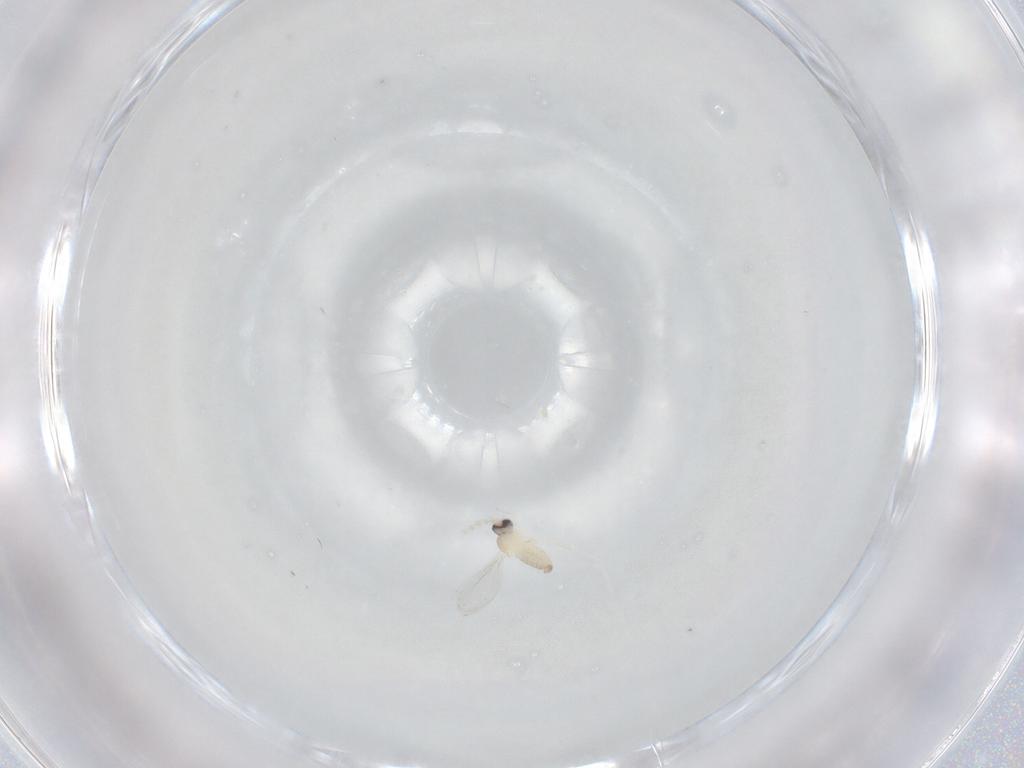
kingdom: Animalia
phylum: Arthropoda
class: Insecta
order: Diptera
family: Cecidomyiidae
